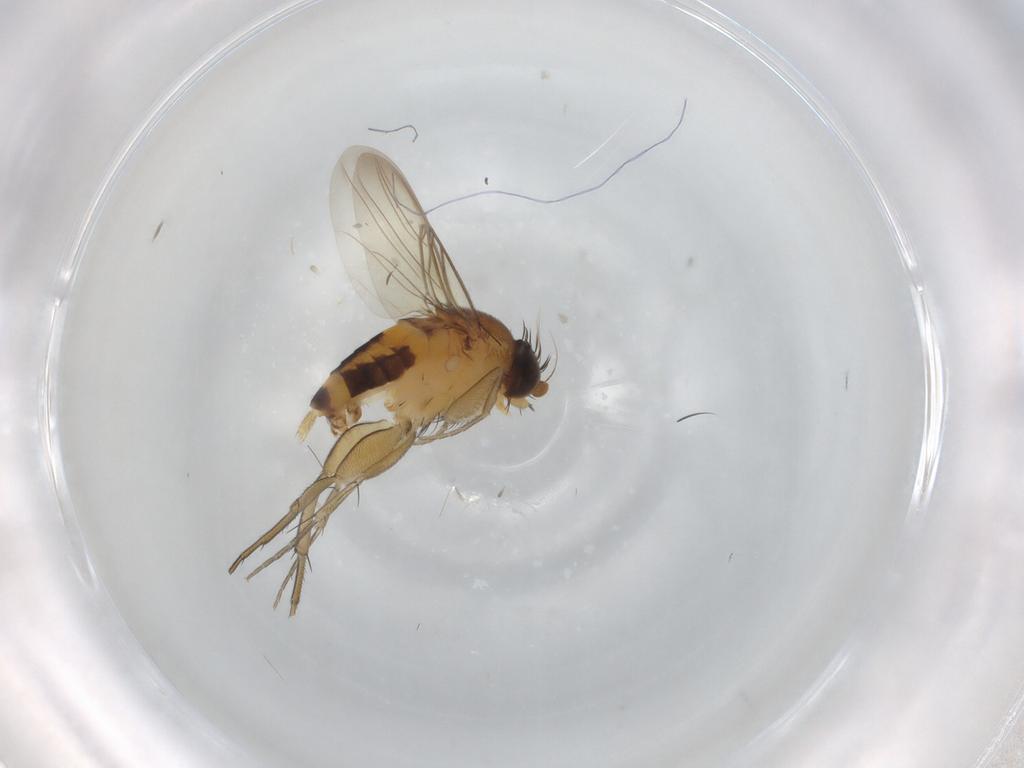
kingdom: Animalia
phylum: Arthropoda
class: Insecta
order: Diptera
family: Phoridae
